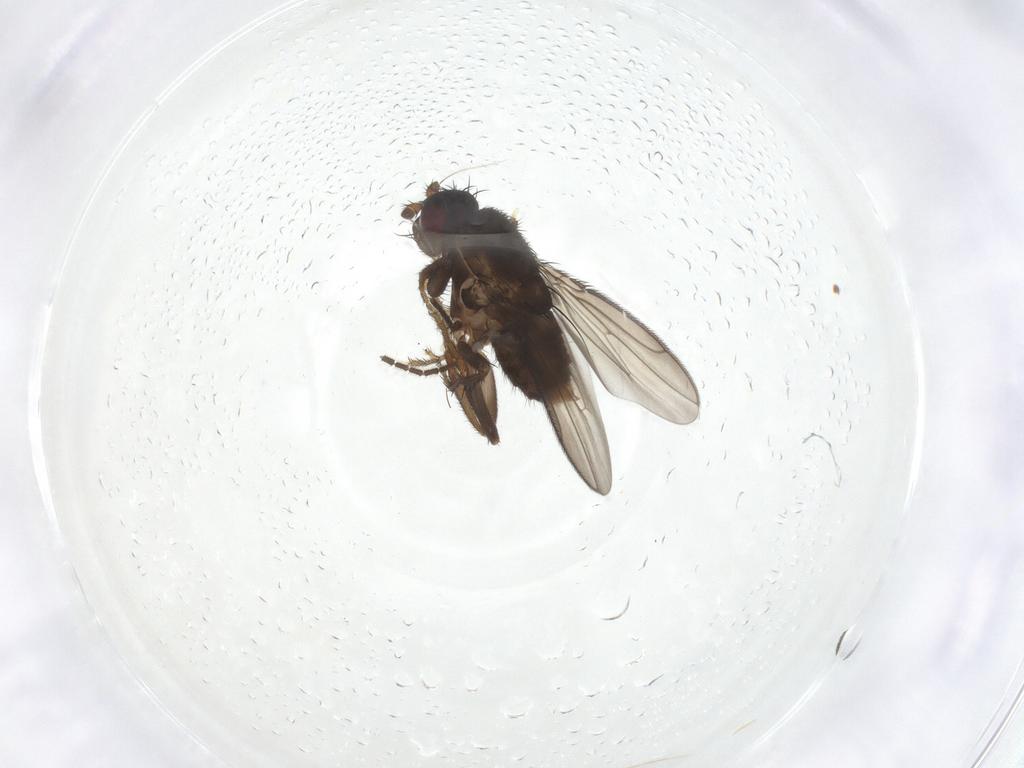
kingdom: Animalia
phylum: Arthropoda
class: Insecta
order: Diptera
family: Sphaeroceridae
